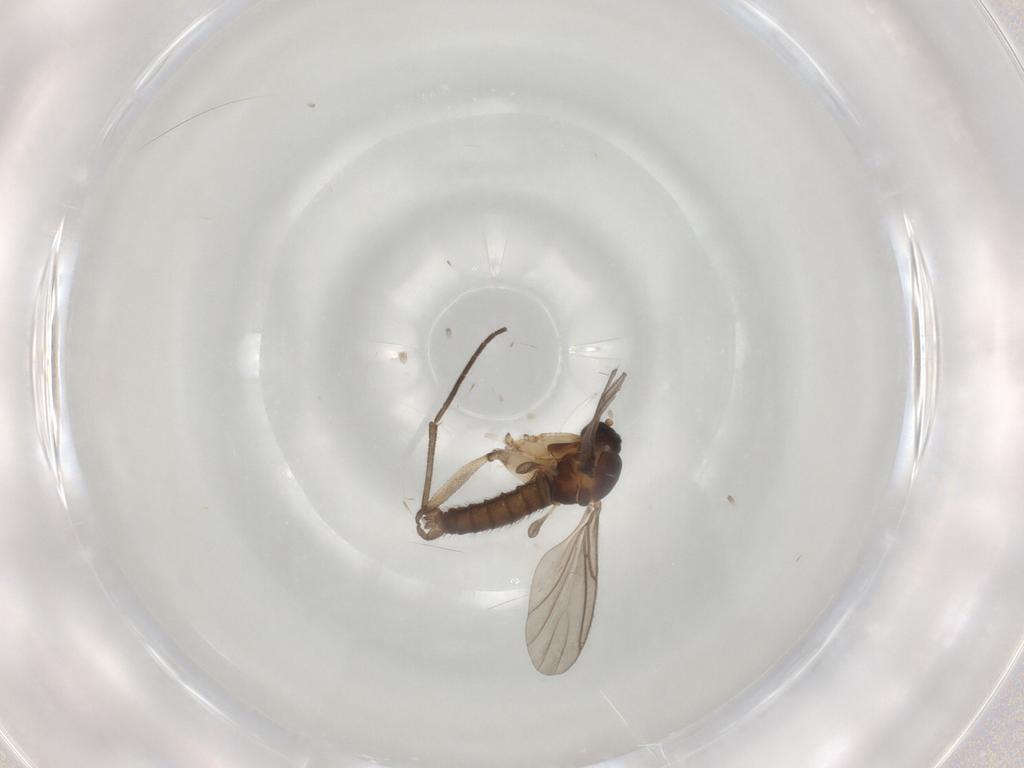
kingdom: Animalia
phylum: Arthropoda
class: Insecta
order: Diptera
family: Sciaridae
